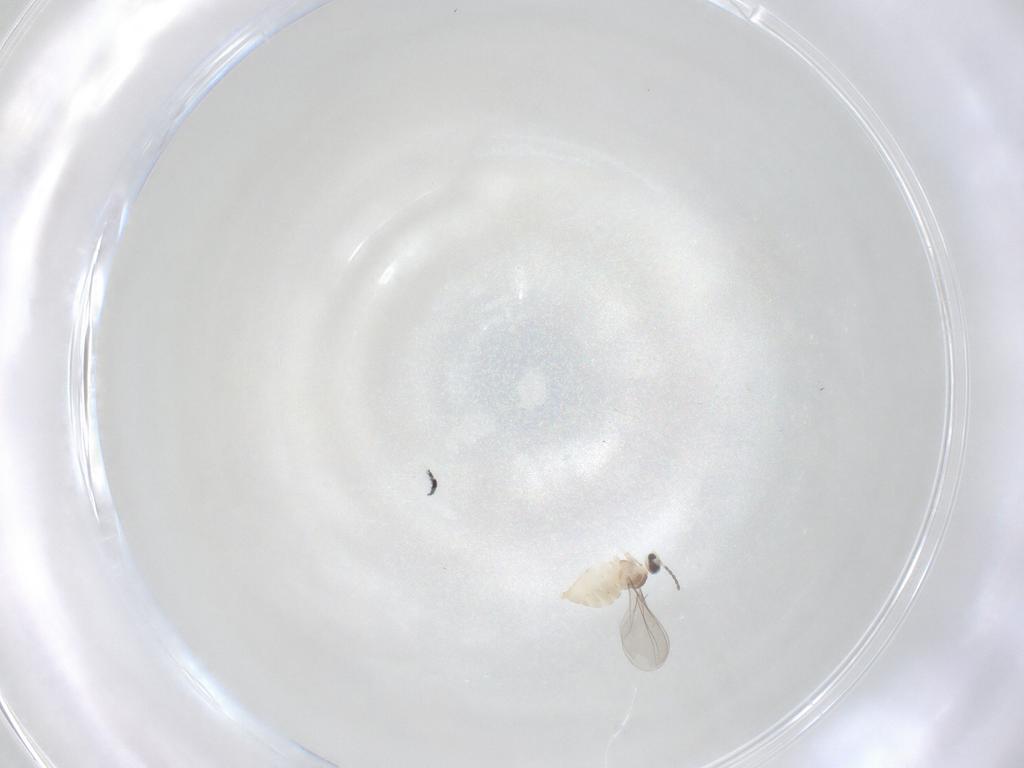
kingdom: Animalia
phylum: Arthropoda
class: Insecta
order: Diptera
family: Cecidomyiidae
